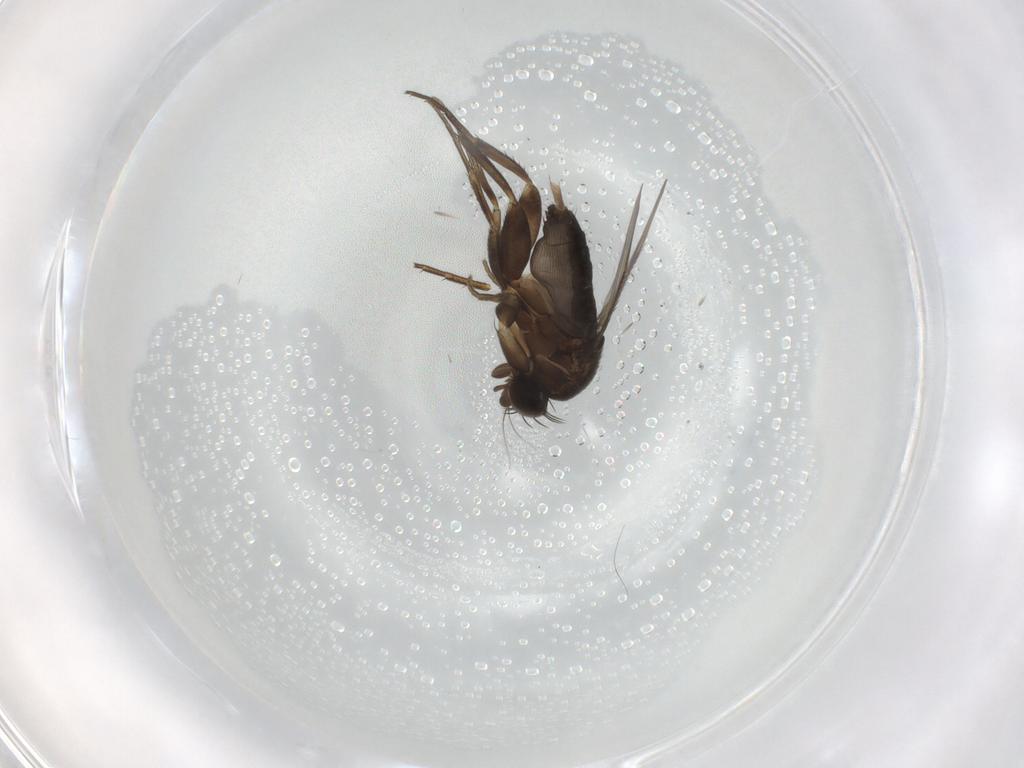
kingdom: Animalia
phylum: Arthropoda
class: Insecta
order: Diptera
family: Phoridae
